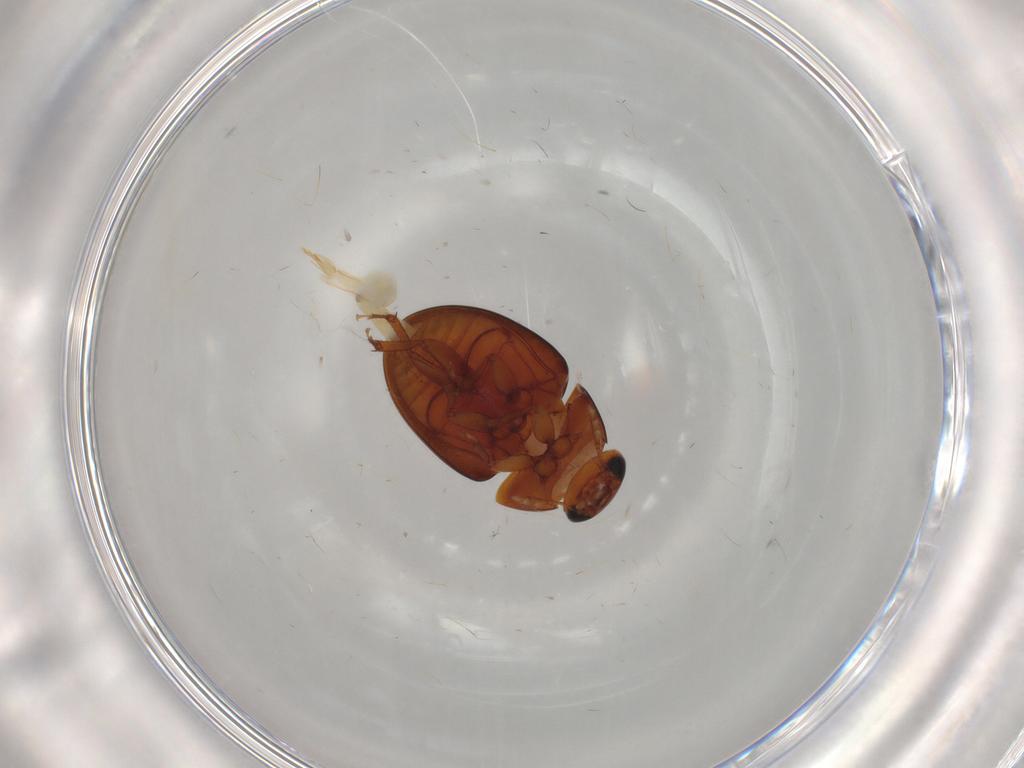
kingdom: Animalia
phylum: Arthropoda
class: Insecta
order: Coleoptera
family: Phalacridae
